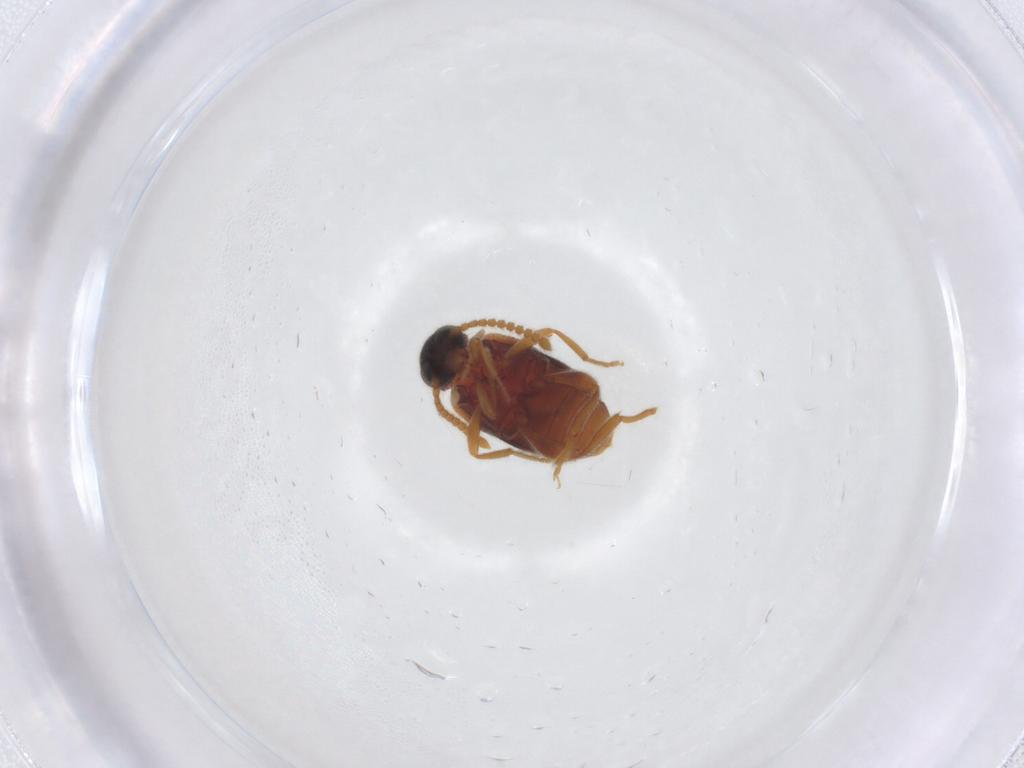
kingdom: Animalia
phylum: Arthropoda
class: Insecta
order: Coleoptera
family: Aderidae
